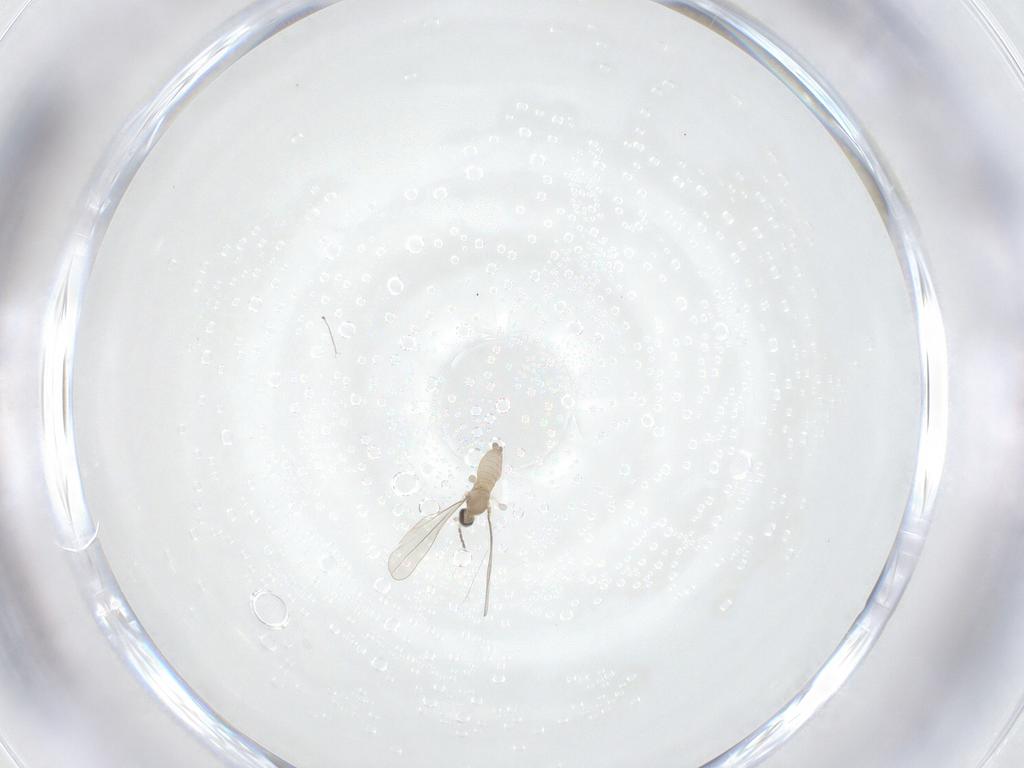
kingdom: Animalia
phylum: Arthropoda
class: Insecta
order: Diptera
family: Cecidomyiidae
